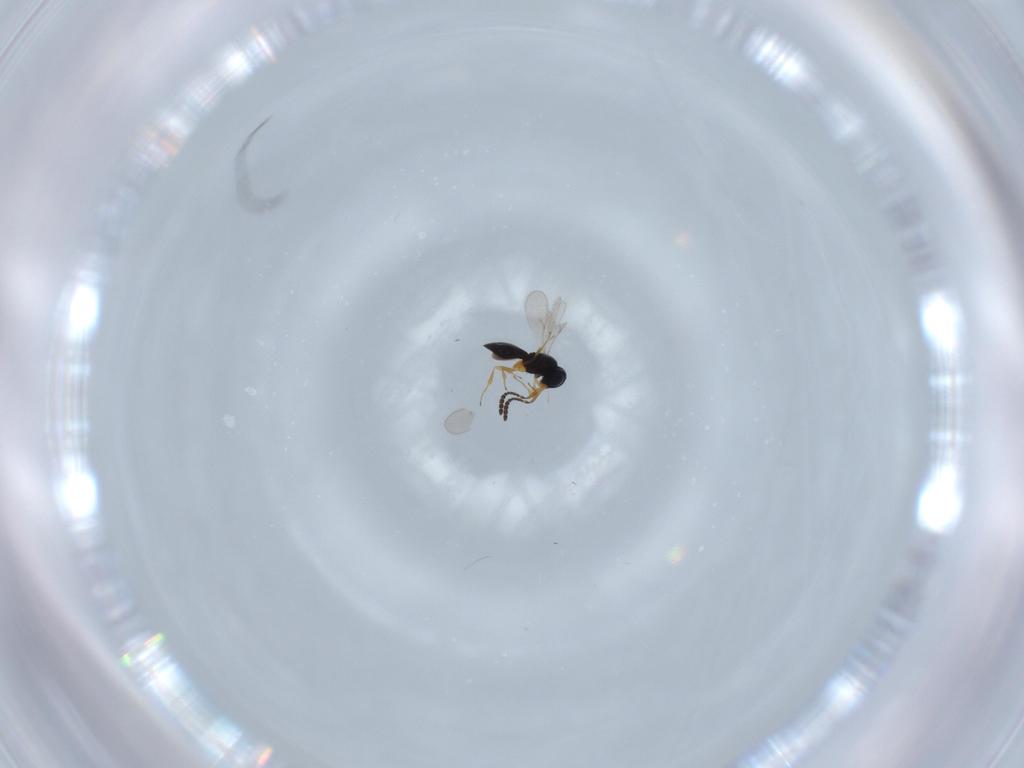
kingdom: Animalia
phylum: Arthropoda
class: Insecta
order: Hymenoptera
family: Scelionidae
